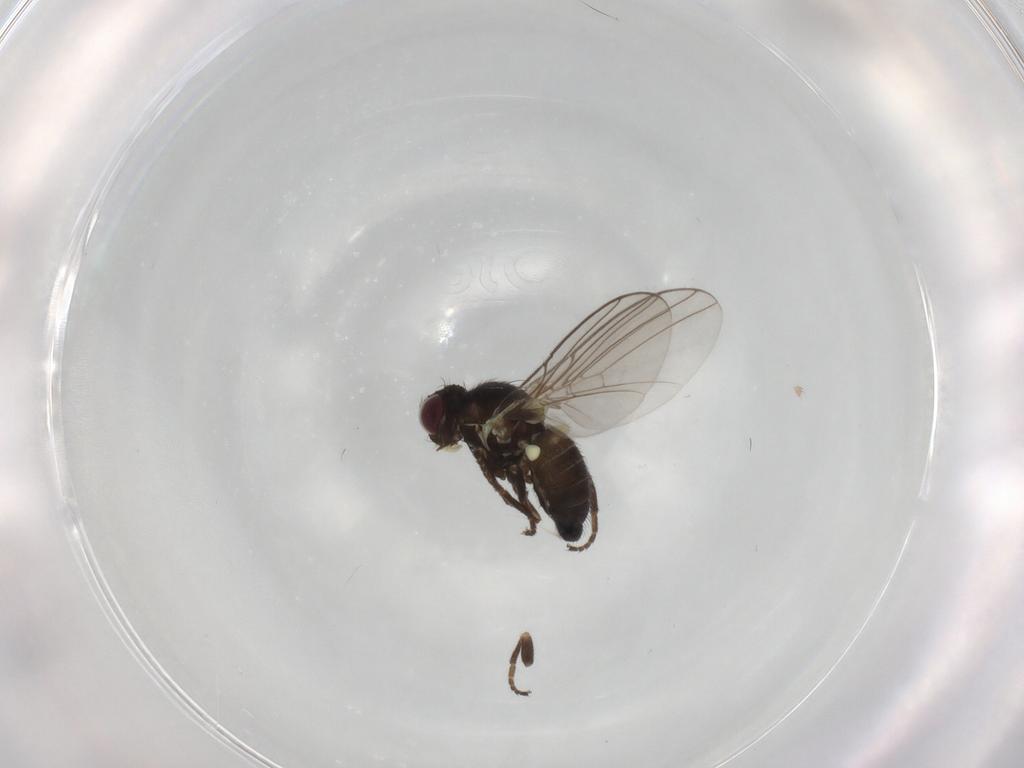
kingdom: Animalia
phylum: Arthropoda
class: Insecta
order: Diptera
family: Agromyzidae
